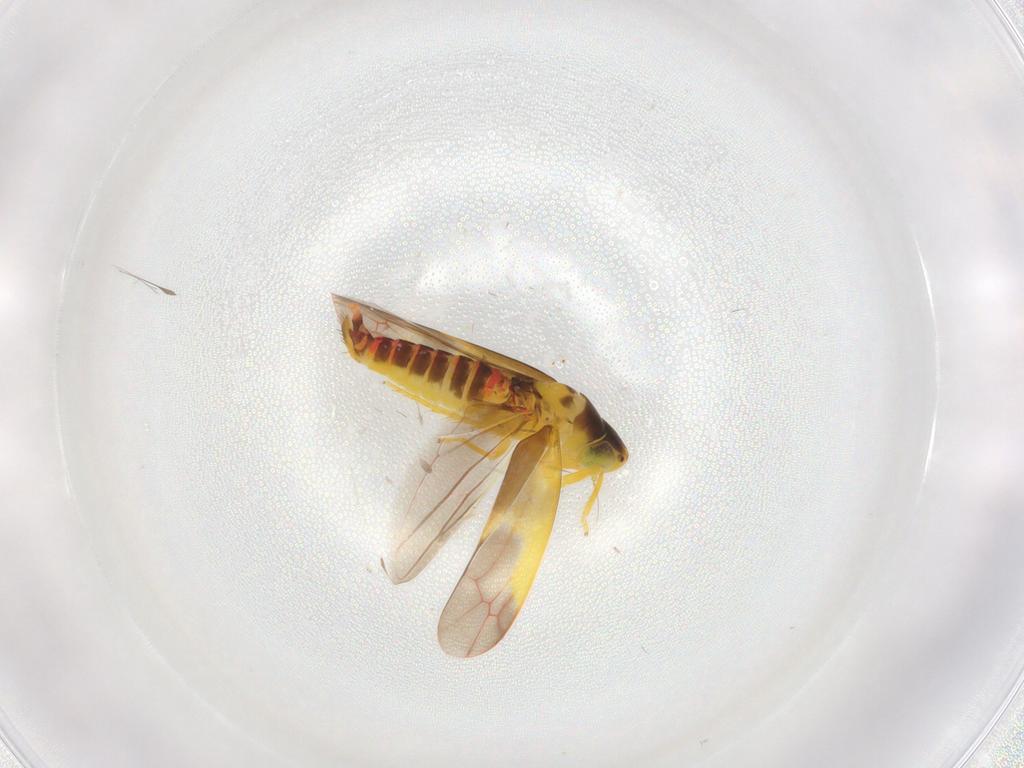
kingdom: Animalia
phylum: Arthropoda
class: Insecta
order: Hemiptera
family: Cicadellidae
